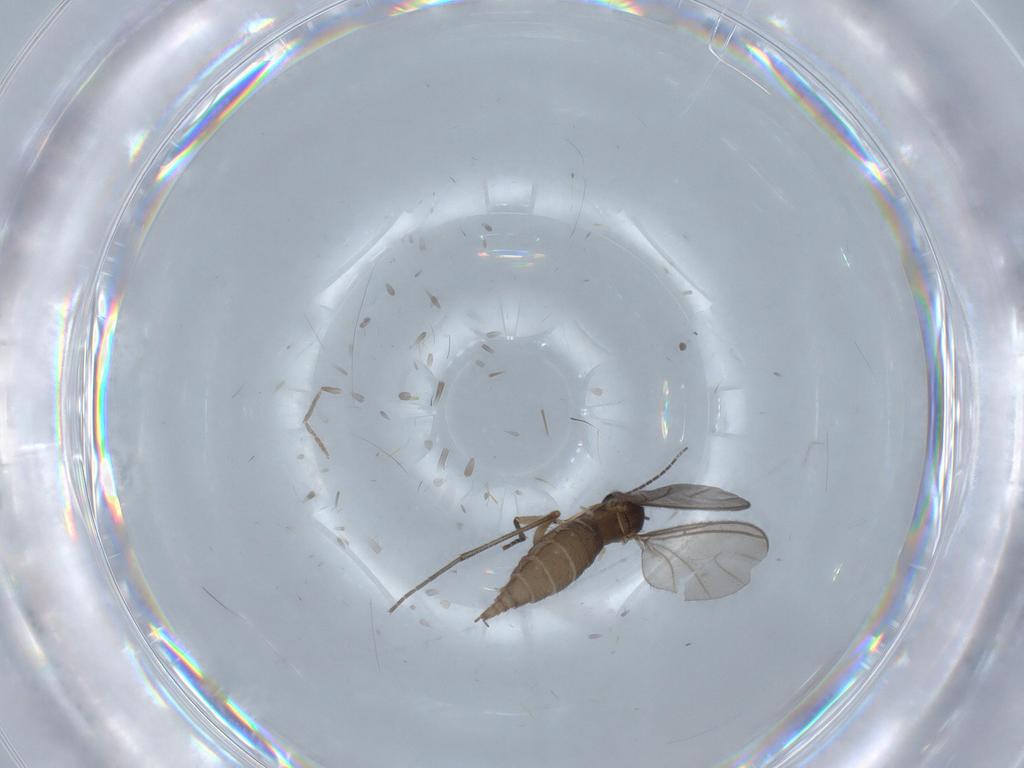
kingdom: Animalia
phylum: Arthropoda
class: Insecta
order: Diptera
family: Sciaridae
